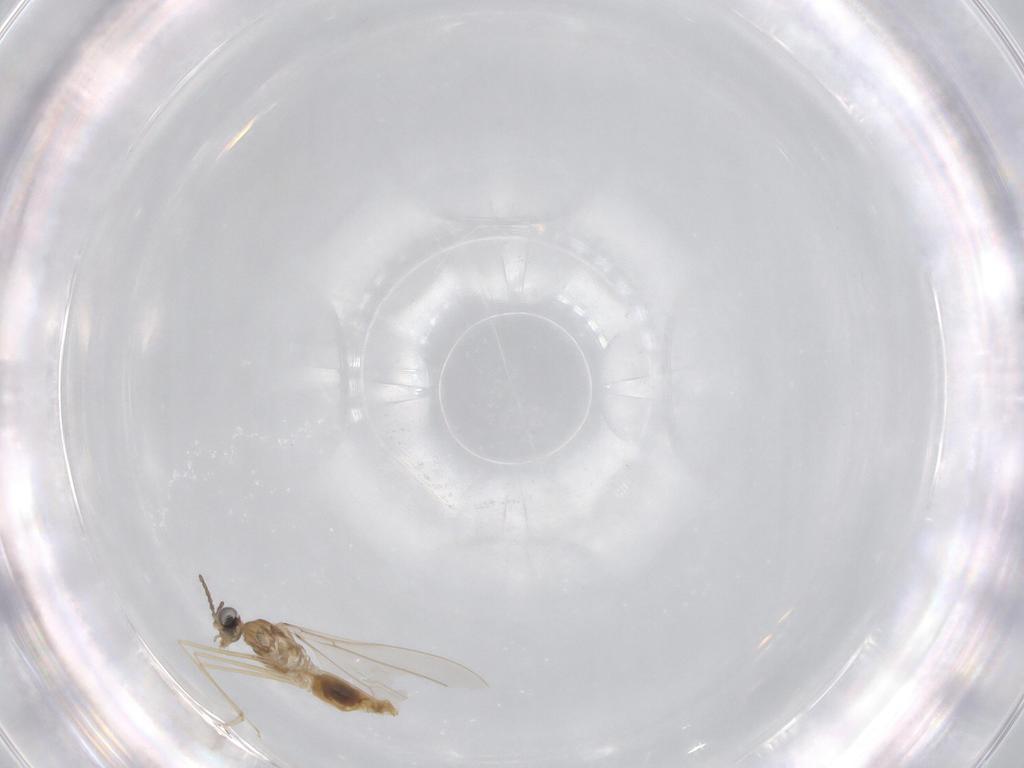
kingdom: Animalia
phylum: Arthropoda
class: Insecta
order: Diptera
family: Cecidomyiidae
